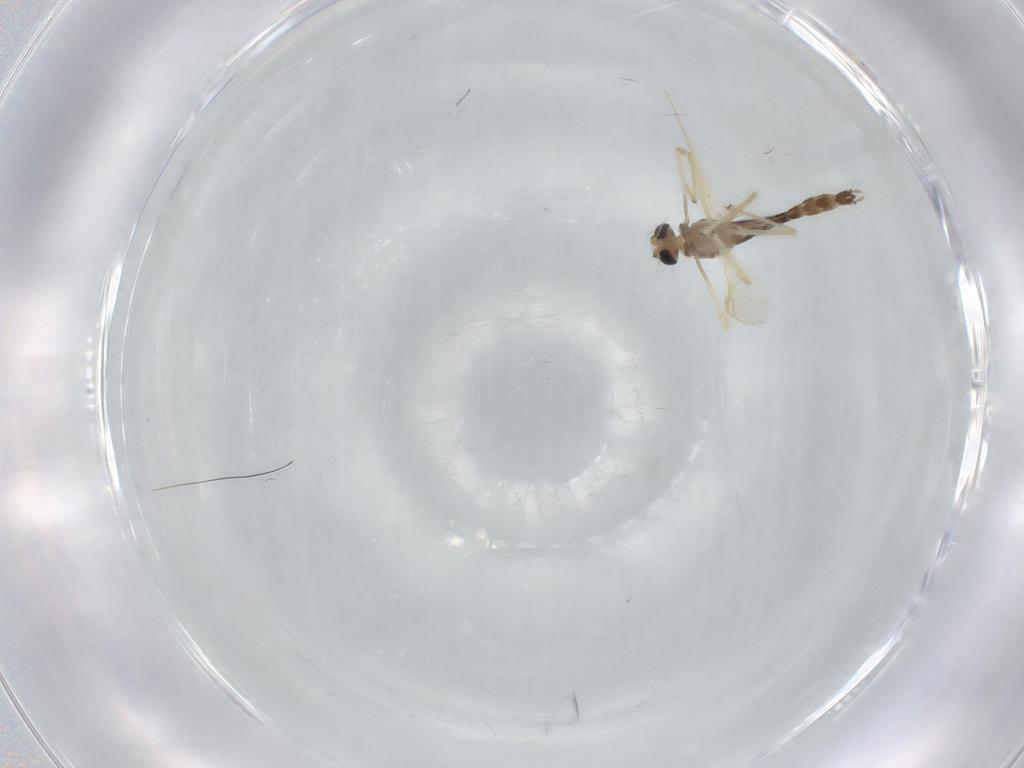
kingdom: Animalia
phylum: Arthropoda
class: Insecta
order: Diptera
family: Chironomidae
